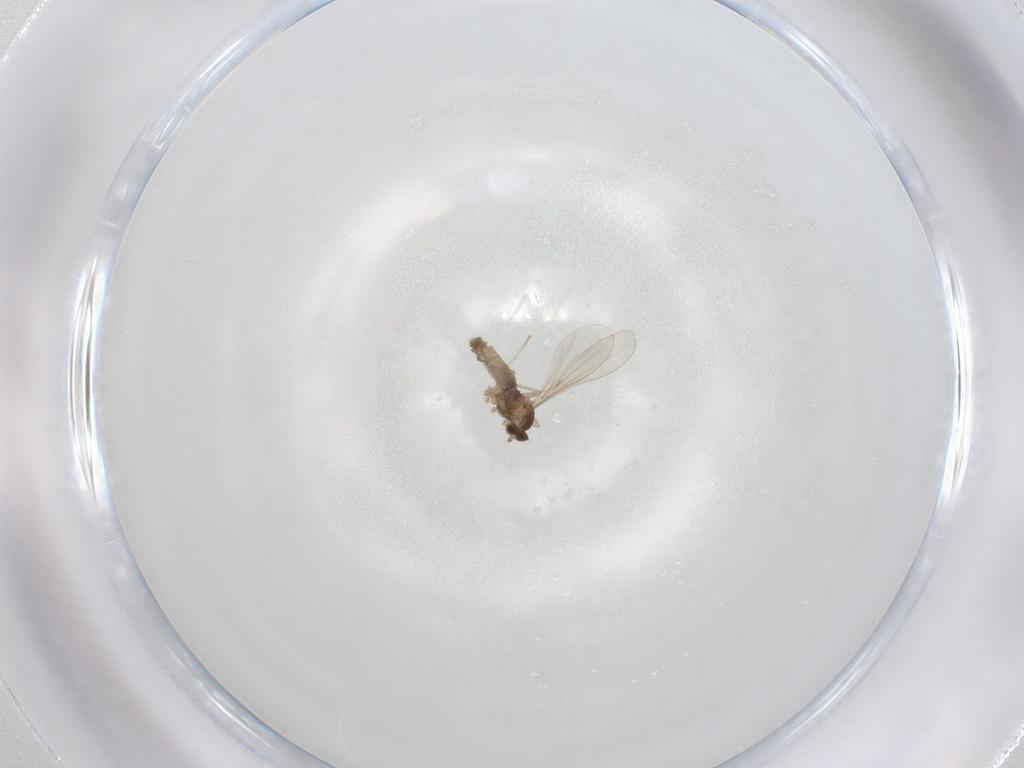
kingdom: Animalia
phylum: Arthropoda
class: Insecta
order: Diptera
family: Cecidomyiidae
